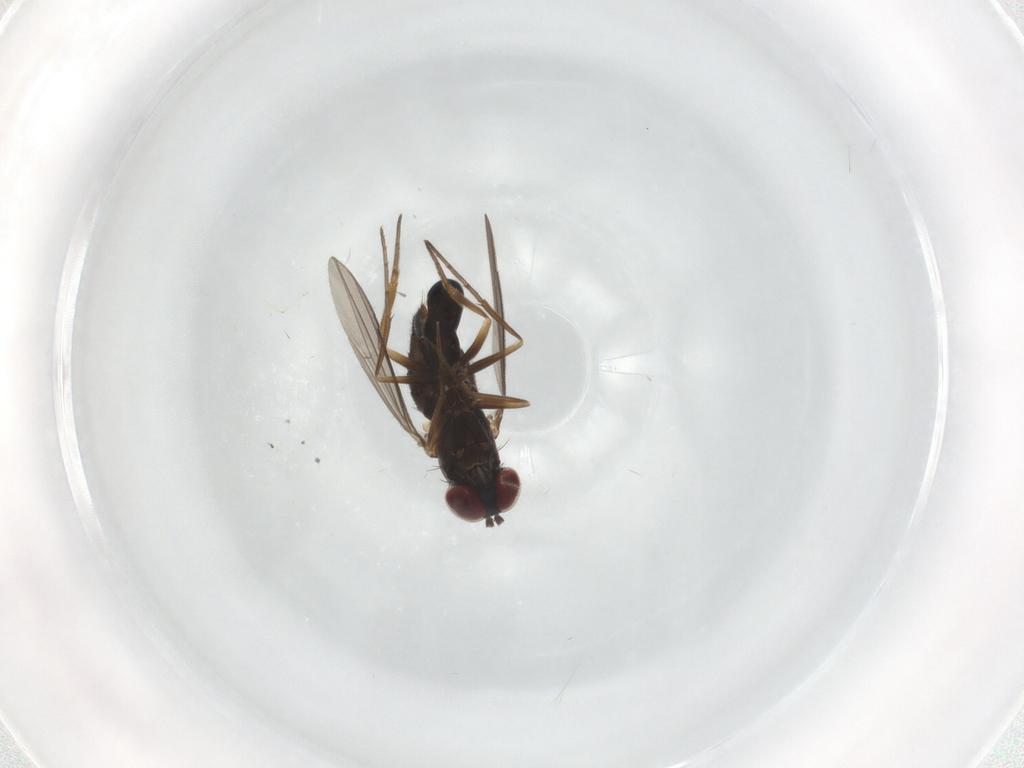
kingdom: Animalia
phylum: Arthropoda
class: Insecta
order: Diptera
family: Dolichopodidae
